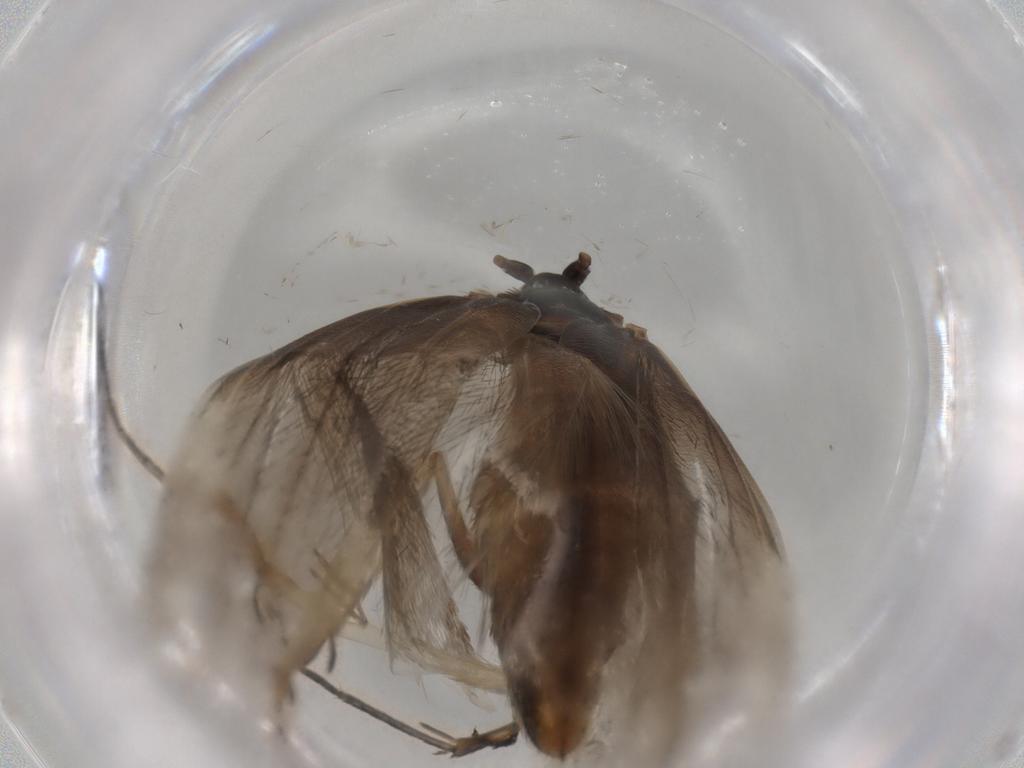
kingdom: Animalia
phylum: Arthropoda
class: Insecta
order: Lepidoptera
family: Adelidae
